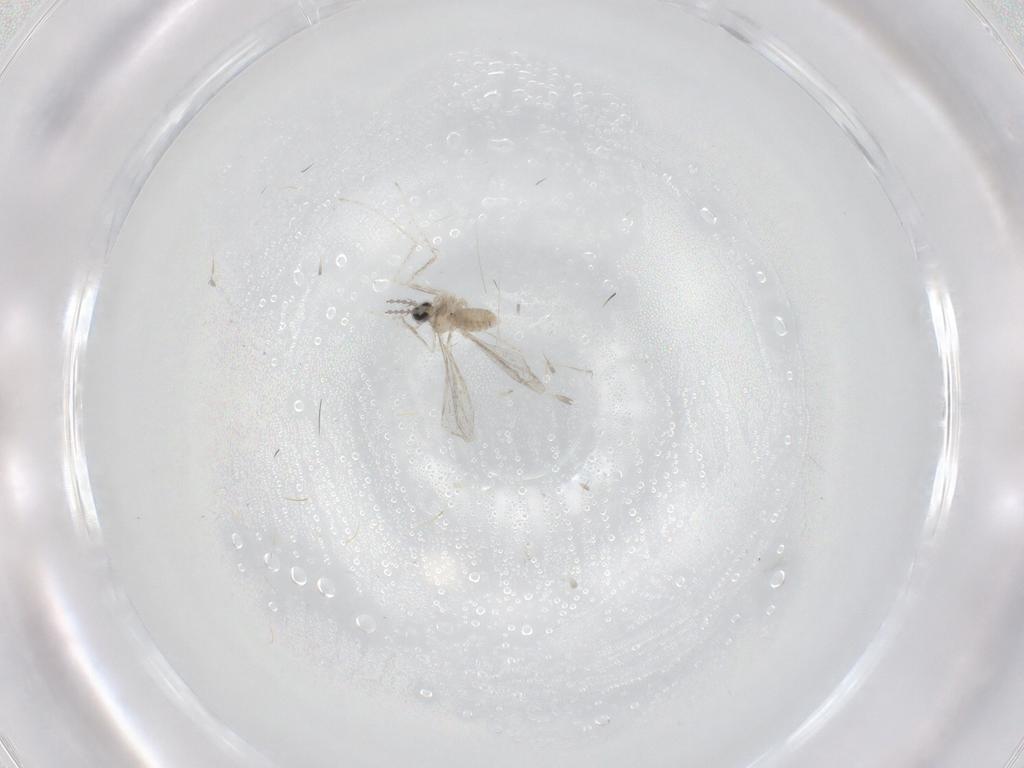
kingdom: Animalia
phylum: Arthropoda
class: Insecta
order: Diptera
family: Cecidomyiidae
